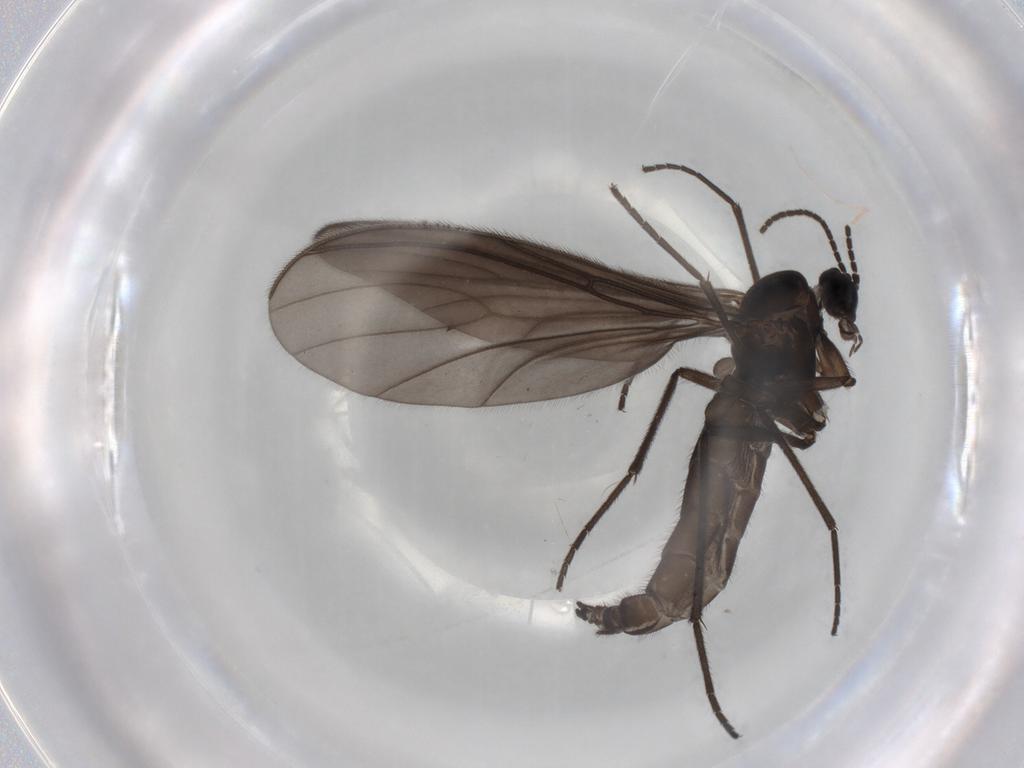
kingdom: Animalia
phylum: Arthropoda
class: Insecta
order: Diptera
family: Sciaridae
